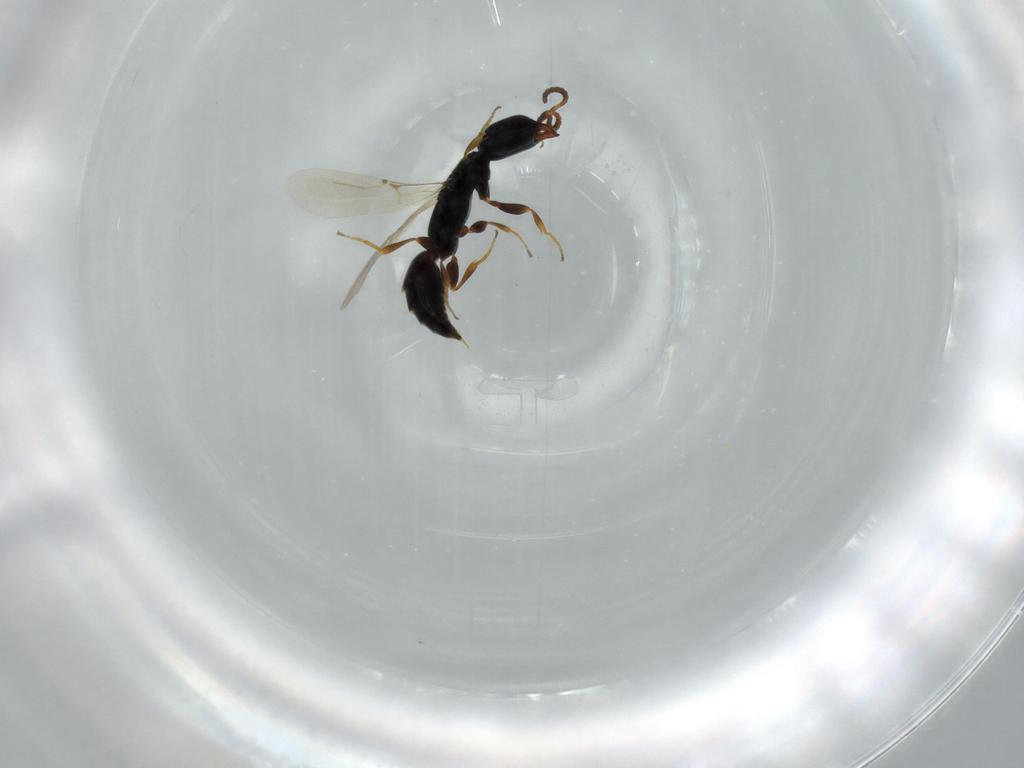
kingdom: Animalia
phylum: Arthropoda
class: Insecta
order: Hymenoptera
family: Bethylidae
